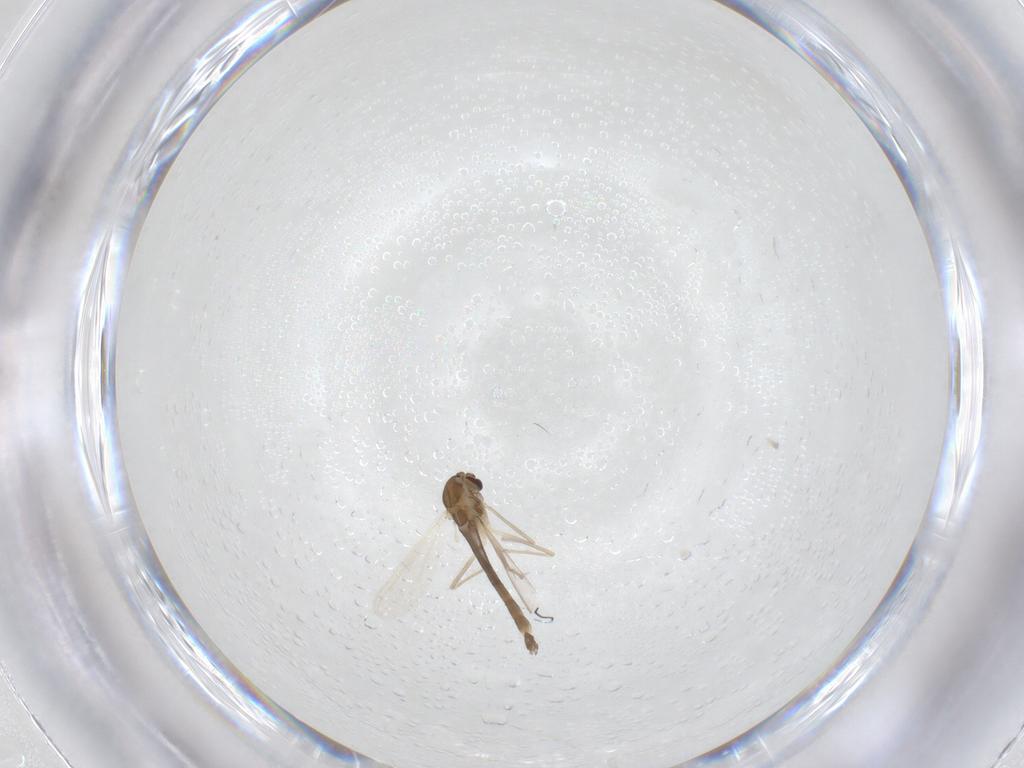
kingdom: Animalia
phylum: Arthropoda
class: Insecta
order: Diptera
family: Chironomidae
